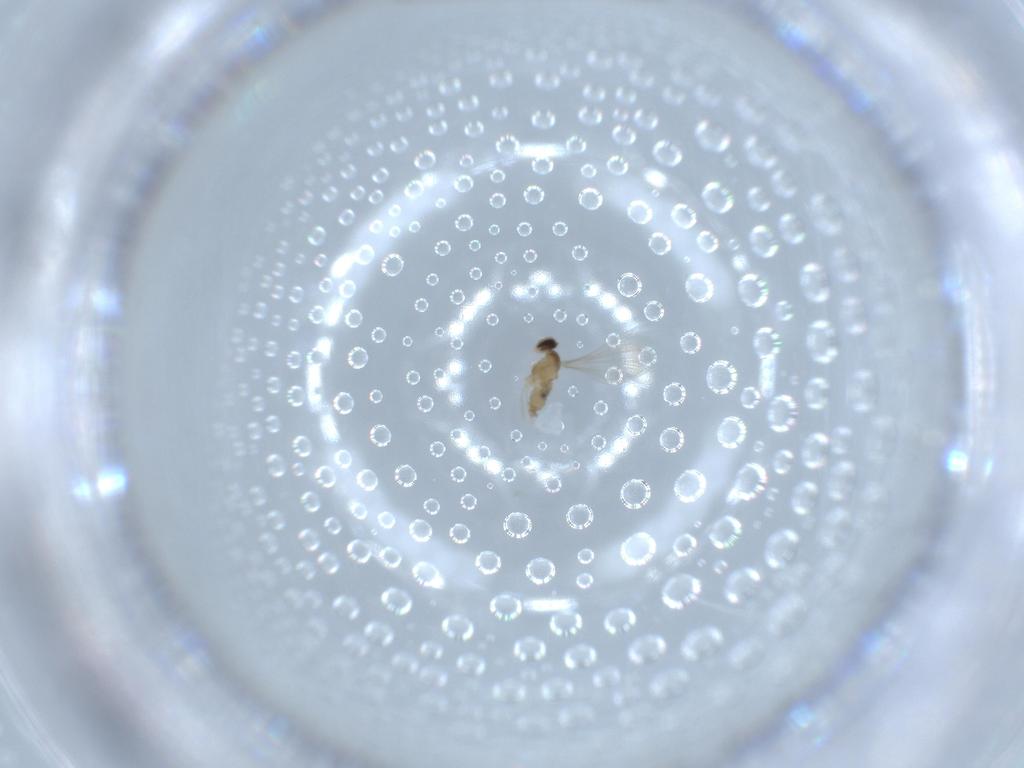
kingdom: Animalia
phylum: Arthropoda
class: Insecta
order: Diptera
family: Cecidomyiidae
